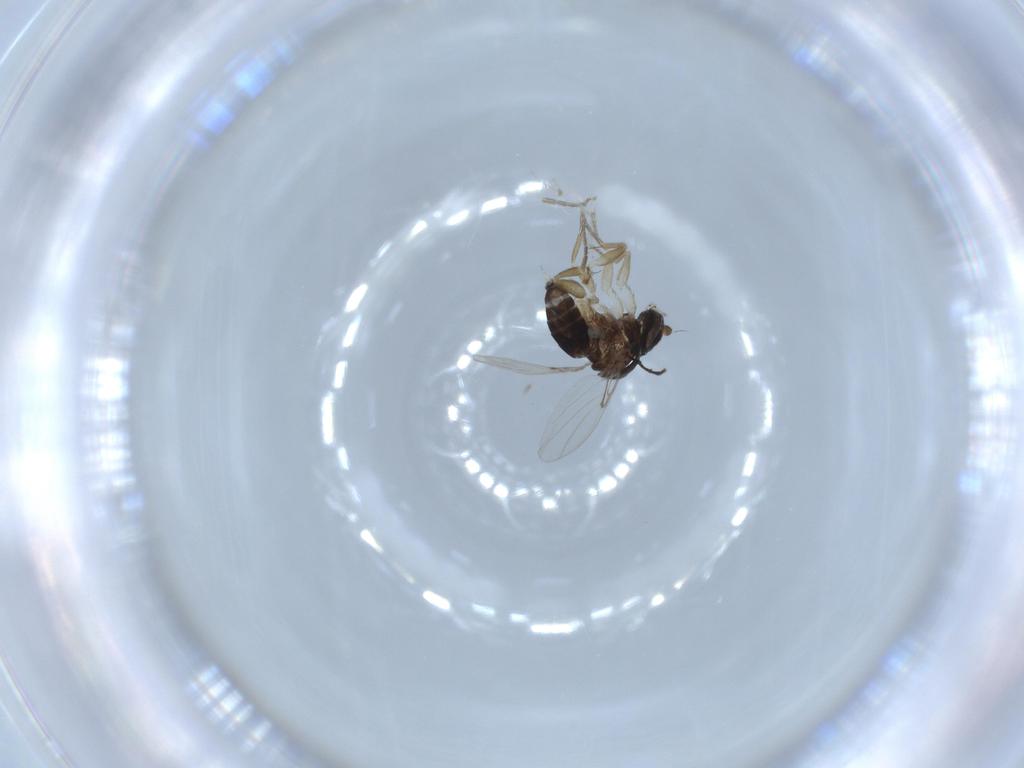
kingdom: Animalia
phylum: Arthropoda
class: Insecta
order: Diptera
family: Cecidomyiidae
